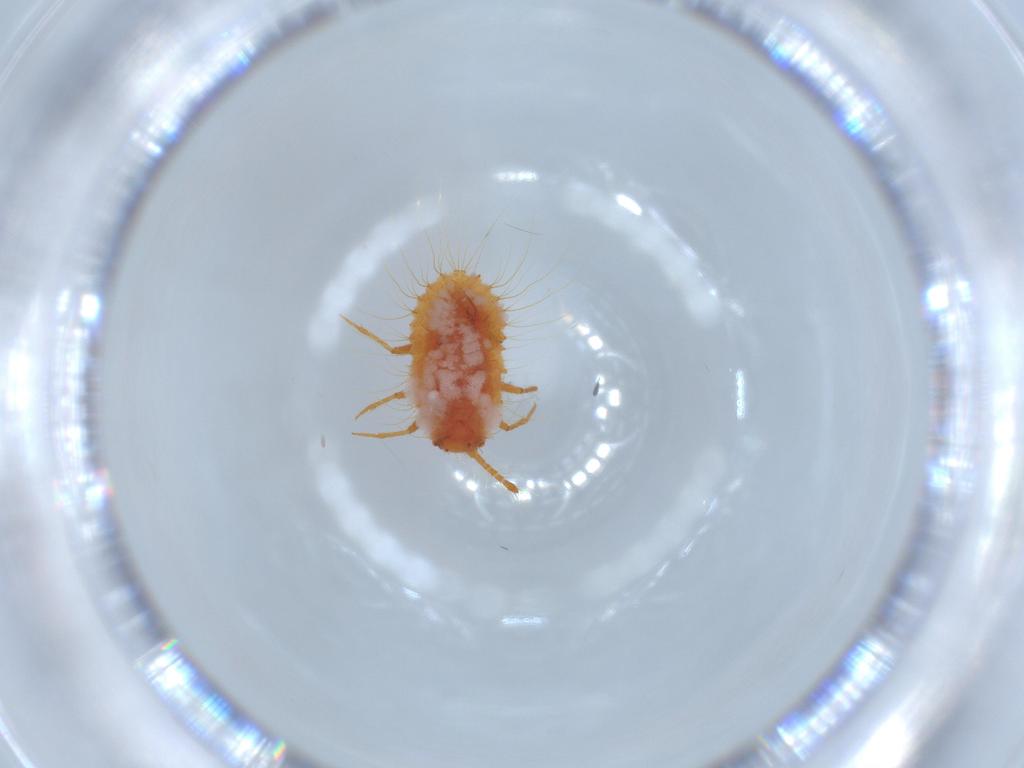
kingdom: Animalia
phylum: Arthropoda
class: Insecta
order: Hemiptera
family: Coccoidea_incertae_sedis
